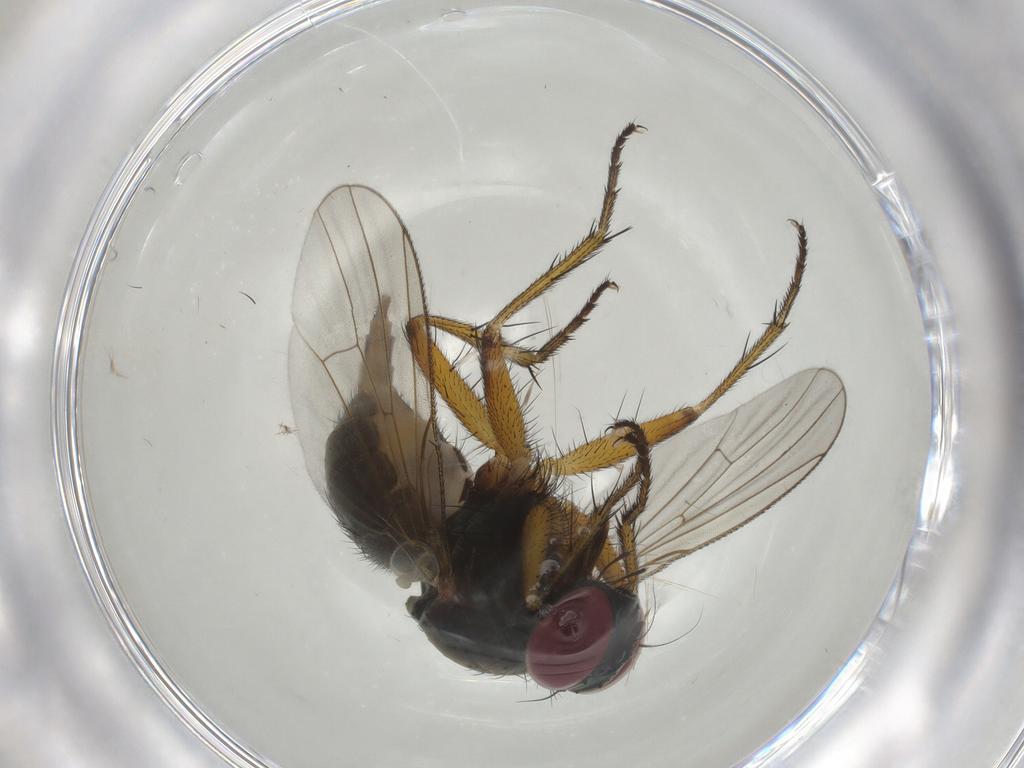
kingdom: Animalia
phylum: Arthropoda
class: Insecta
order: Diptera
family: Muscidae
